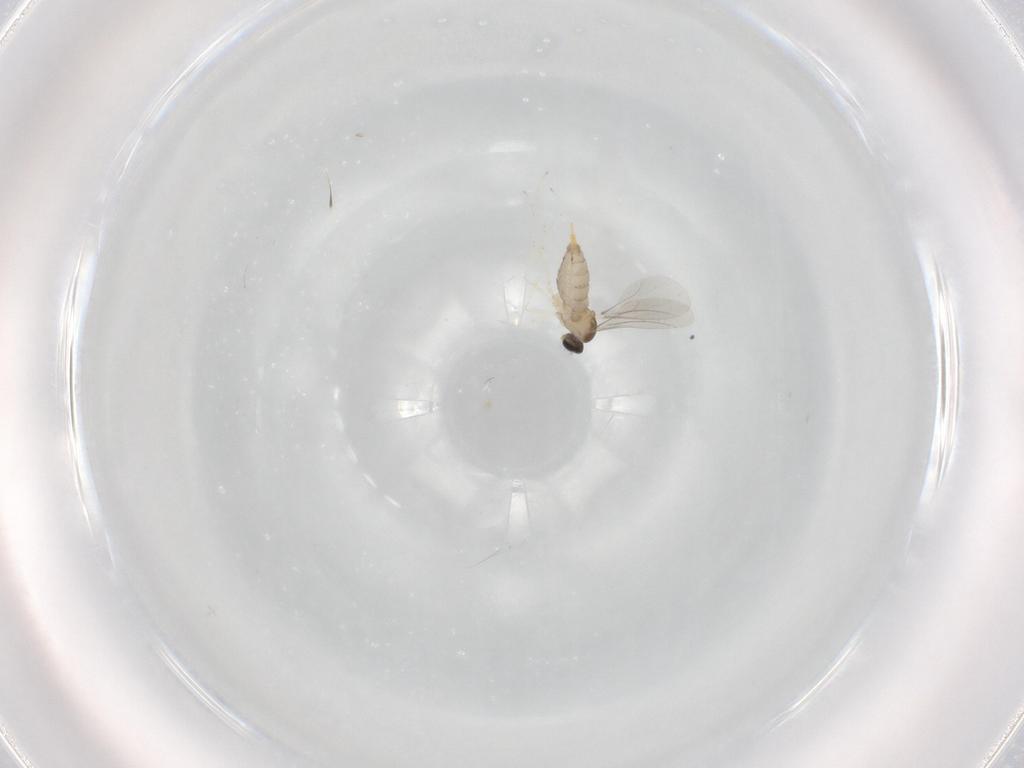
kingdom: Animalia
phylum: Arthropoda
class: Insecta
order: Diptera
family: Cecidomyiidae
